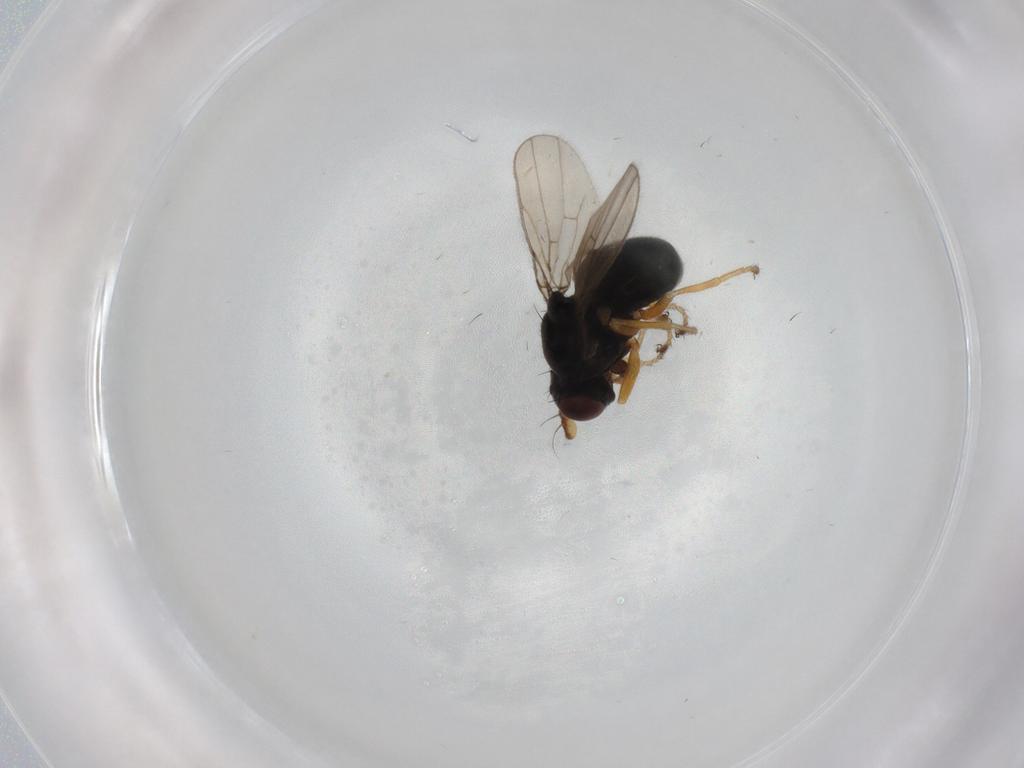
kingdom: Animalia
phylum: Arthropoda
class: Insecta
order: Diptera
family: Ephydridae
